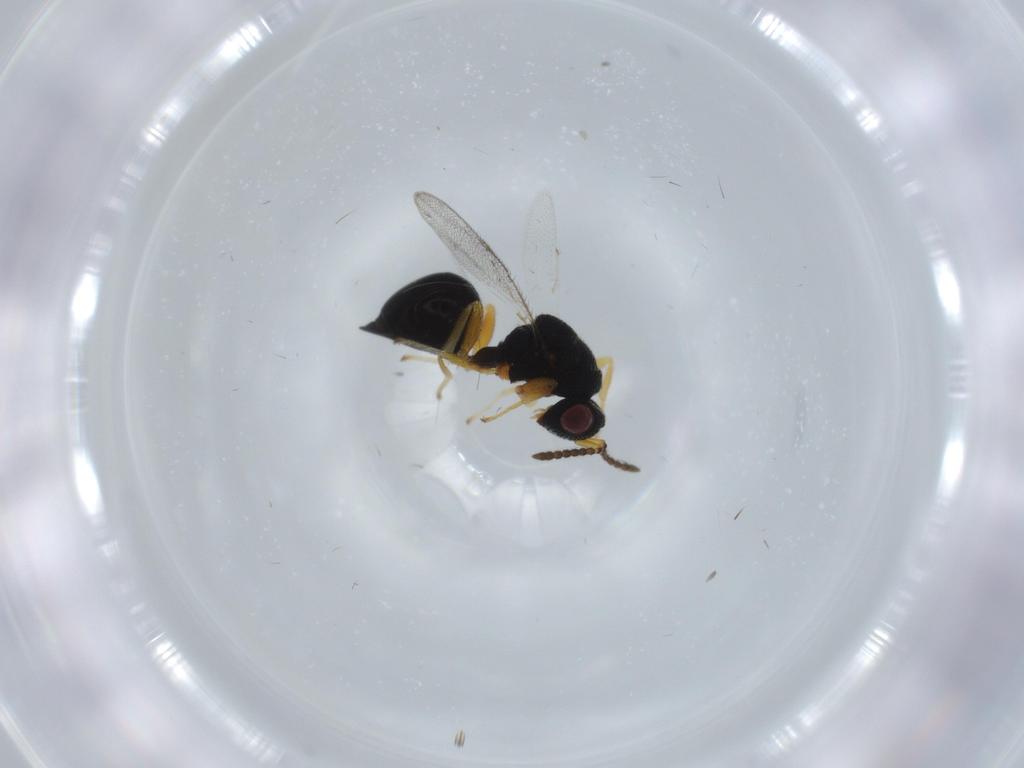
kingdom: Animalia
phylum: Arthropoda
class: Insecta
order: Hymenoptera
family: Eurytomidae
